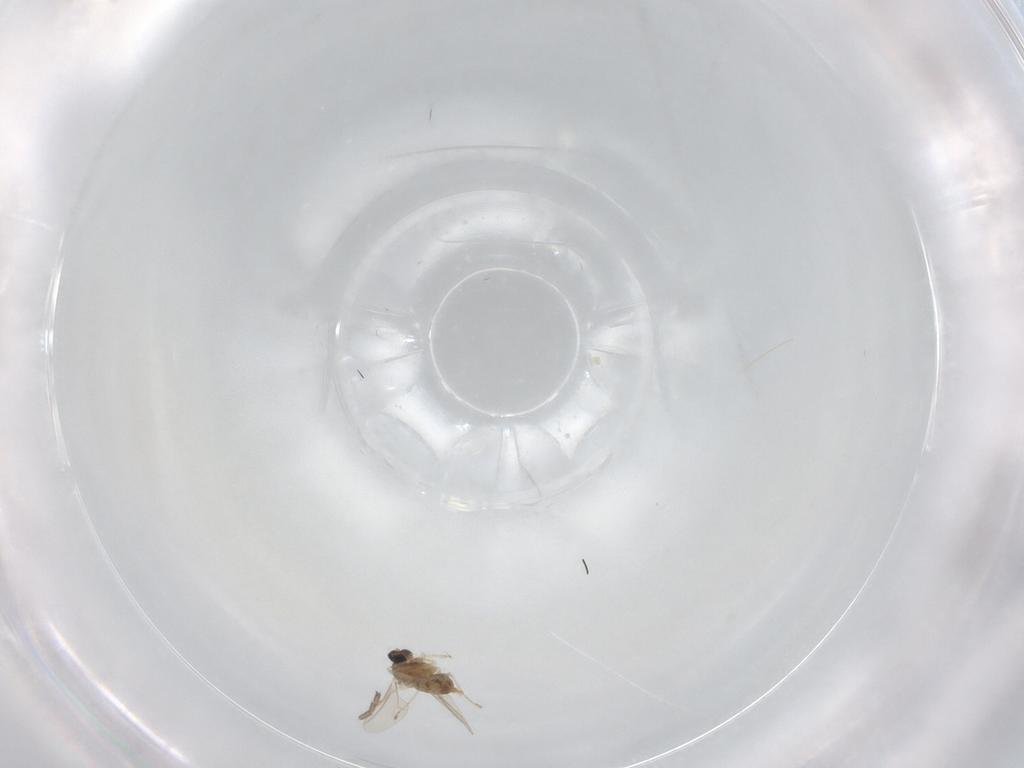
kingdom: Animalia
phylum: Arthropoda
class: Insecta
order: Diptera
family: Cecidomyiidae
